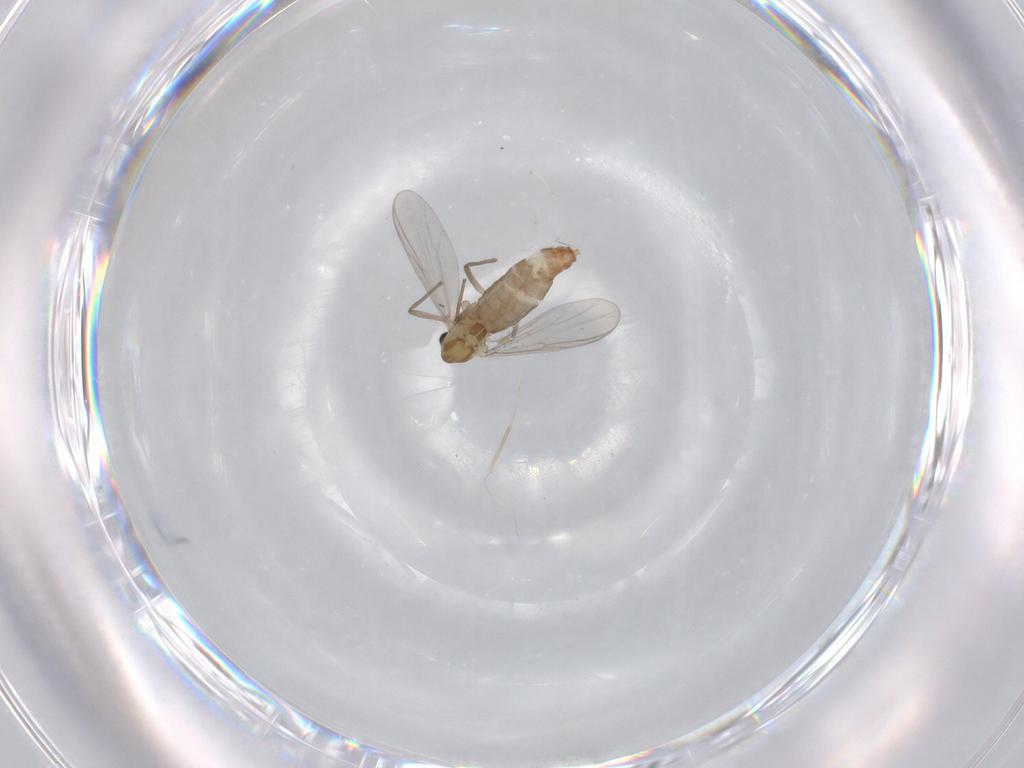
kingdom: Animalia
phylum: Arthropoda
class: Insecta
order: Diptera
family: Chironomidae
